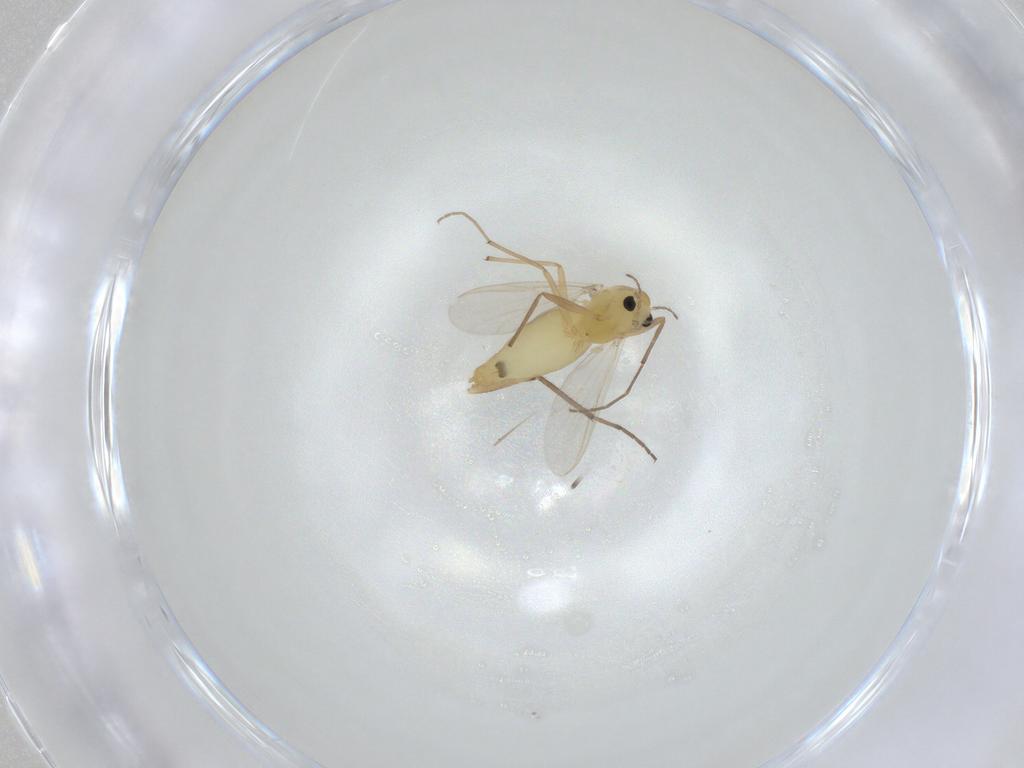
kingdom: Animalia
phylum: Arthropoda
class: Insecta
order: Diptera
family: Chironomidae
